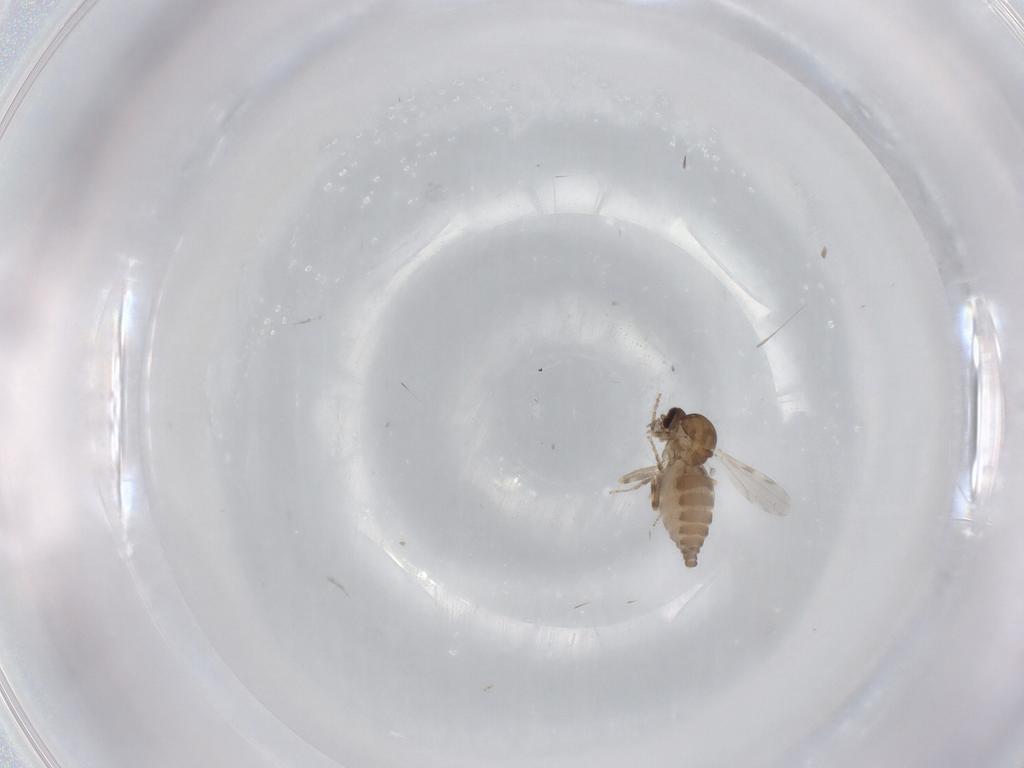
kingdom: Animalia
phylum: Arthropoda
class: Insecta
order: Diptera
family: Ceratopogonidae
